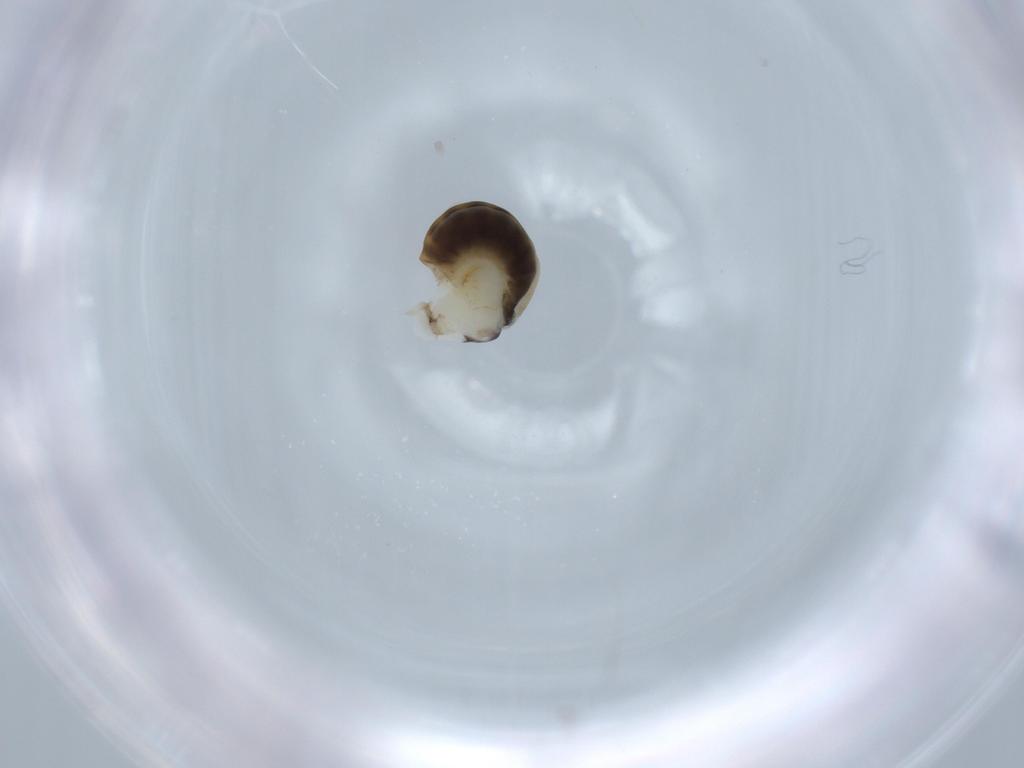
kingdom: Animalia
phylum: Arthropoda
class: Insecta
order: Hymenoptera
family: Dryinidae
